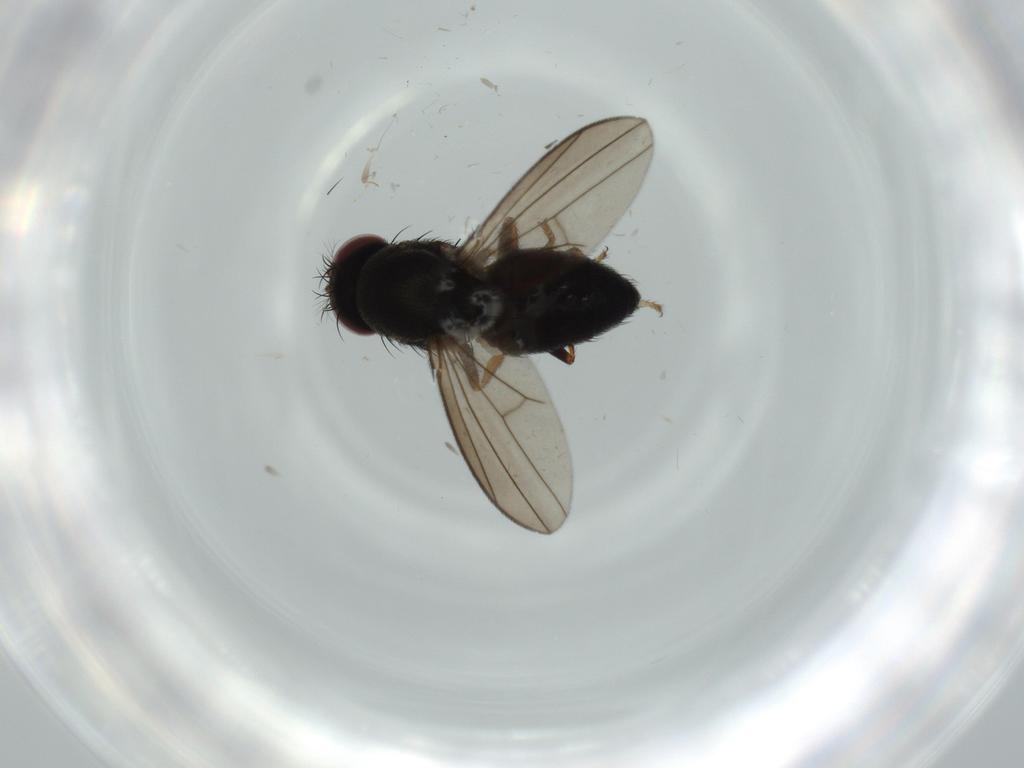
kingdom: Animalia
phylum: Arthropoda
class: Insecta
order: Diptera
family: Ephydridae
